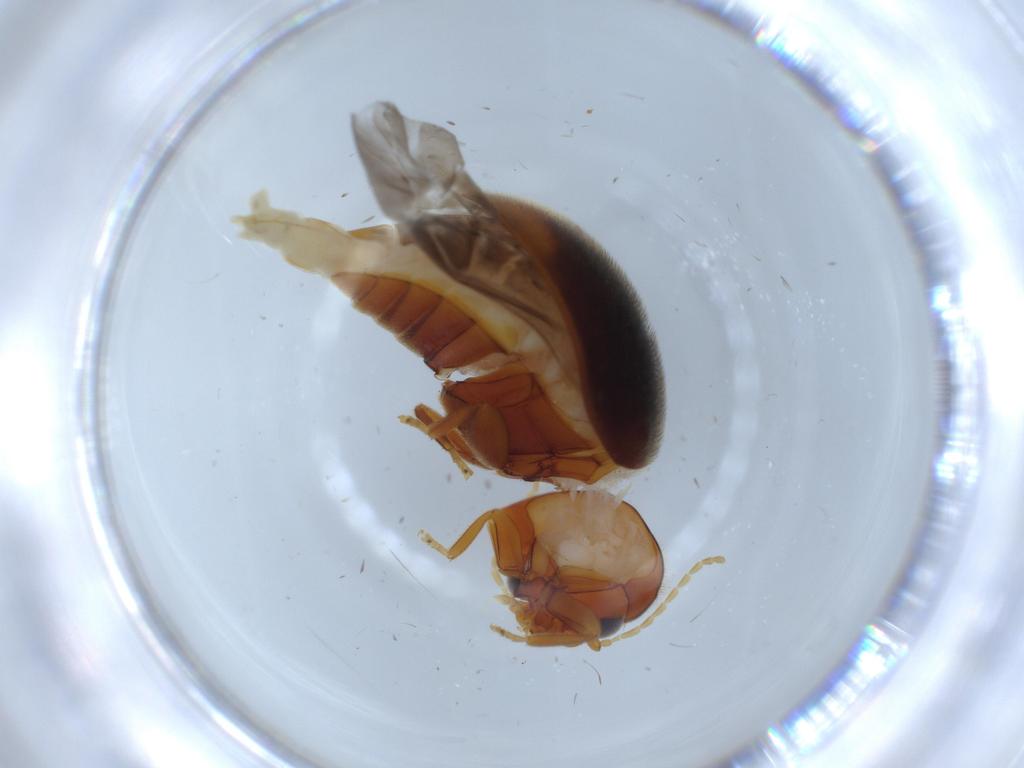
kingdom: Animalia
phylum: Arthropoda
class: Insecta
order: Coleoptera
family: Scirtidae
